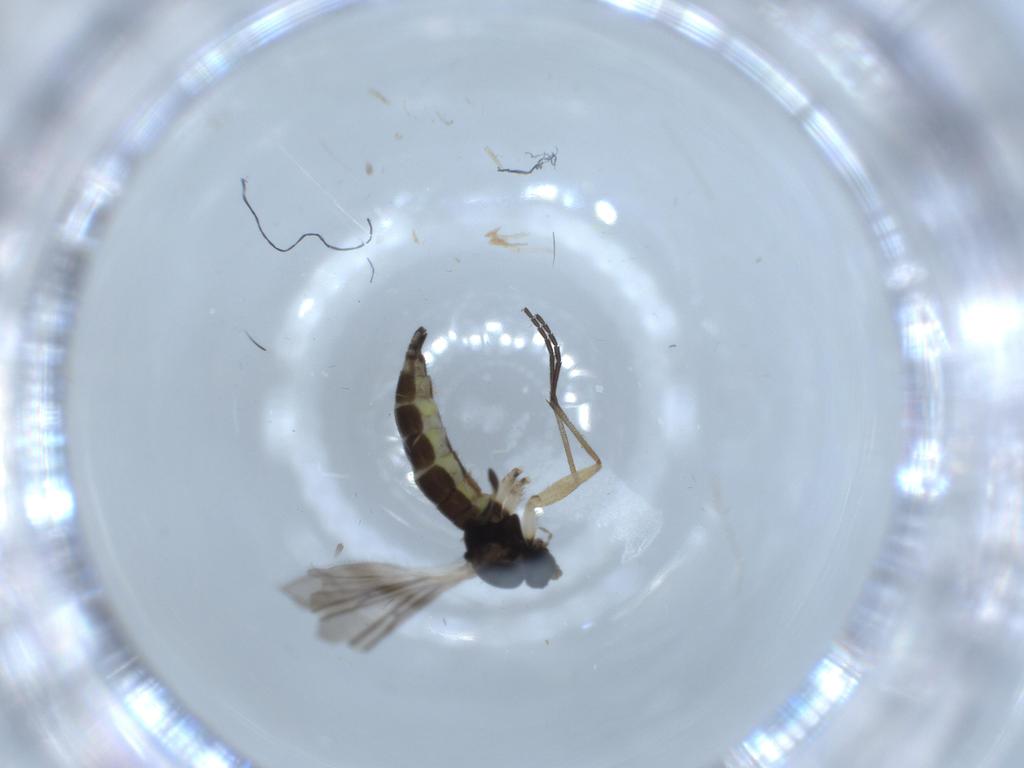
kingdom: Animalia
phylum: Arthropoda
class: Insecta
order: Diptera
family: Sciaridae
